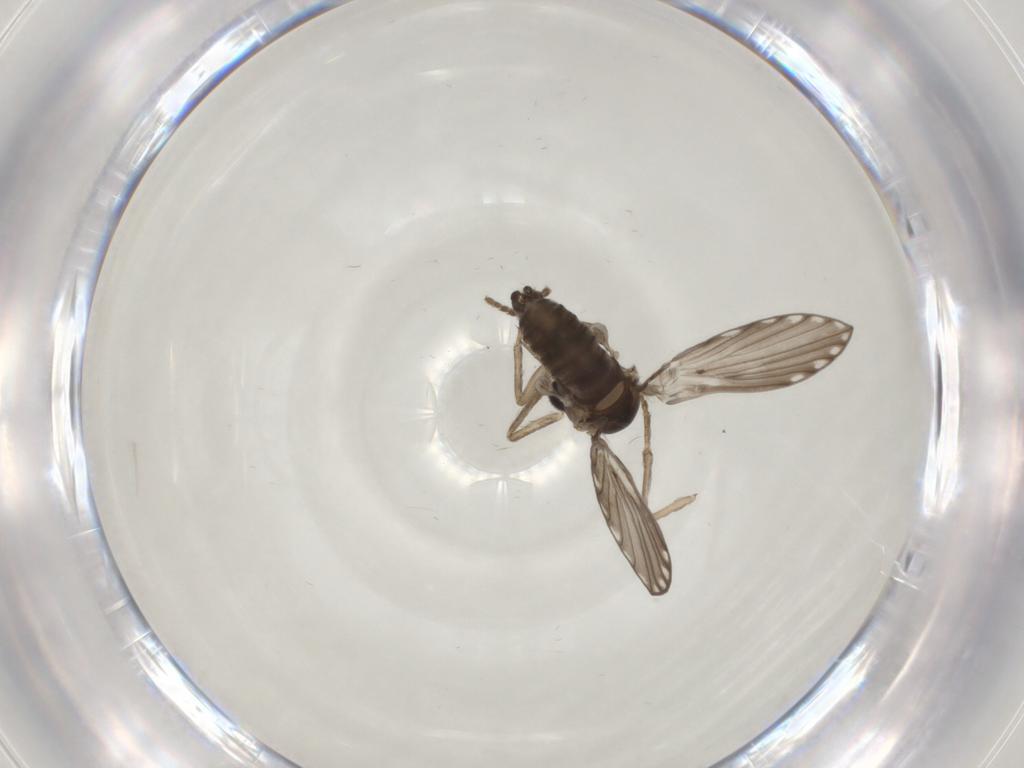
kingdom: Animalia
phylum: Arthropoda
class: Insecta
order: Diptera
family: Psychodidae
